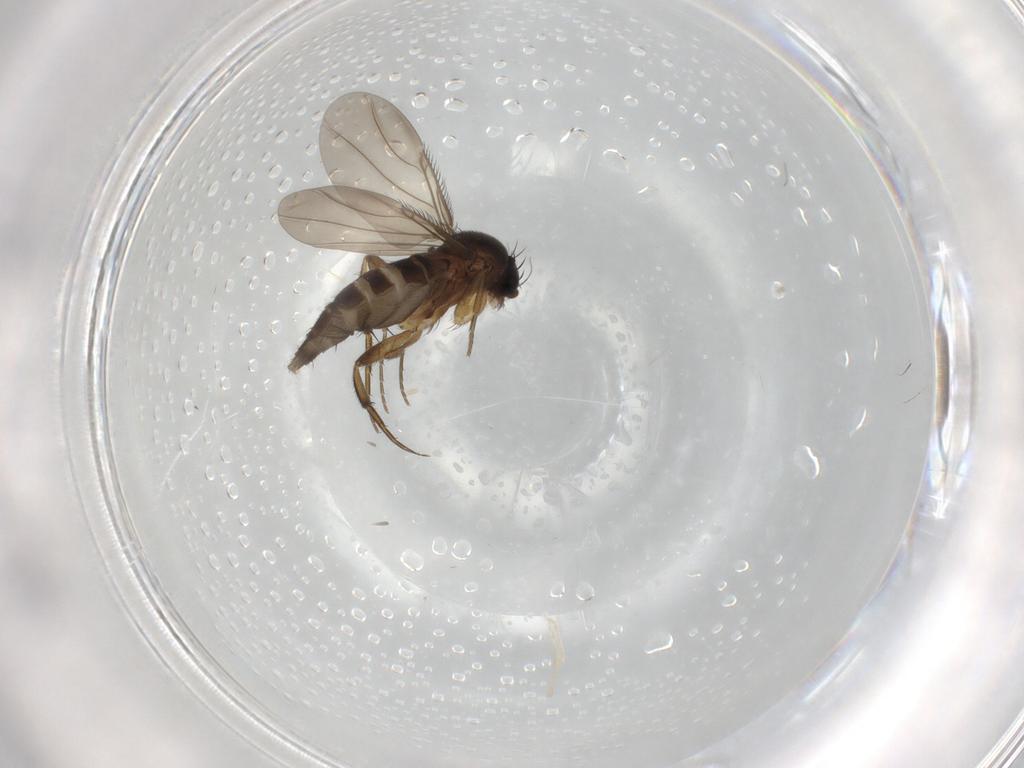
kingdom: Animalia
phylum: Arthropoda
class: Insecta
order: Diptera
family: Phoridae
